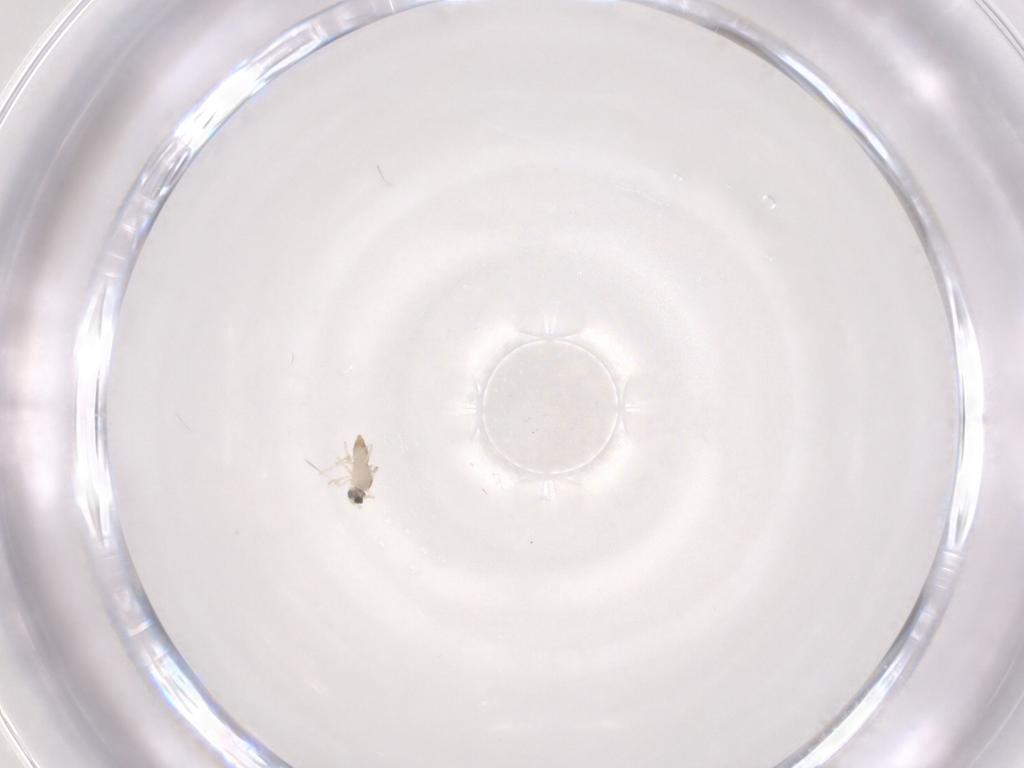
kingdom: Animalia
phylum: Arthropoda
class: Insecta
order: Diptera
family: Cecidomyiidae
